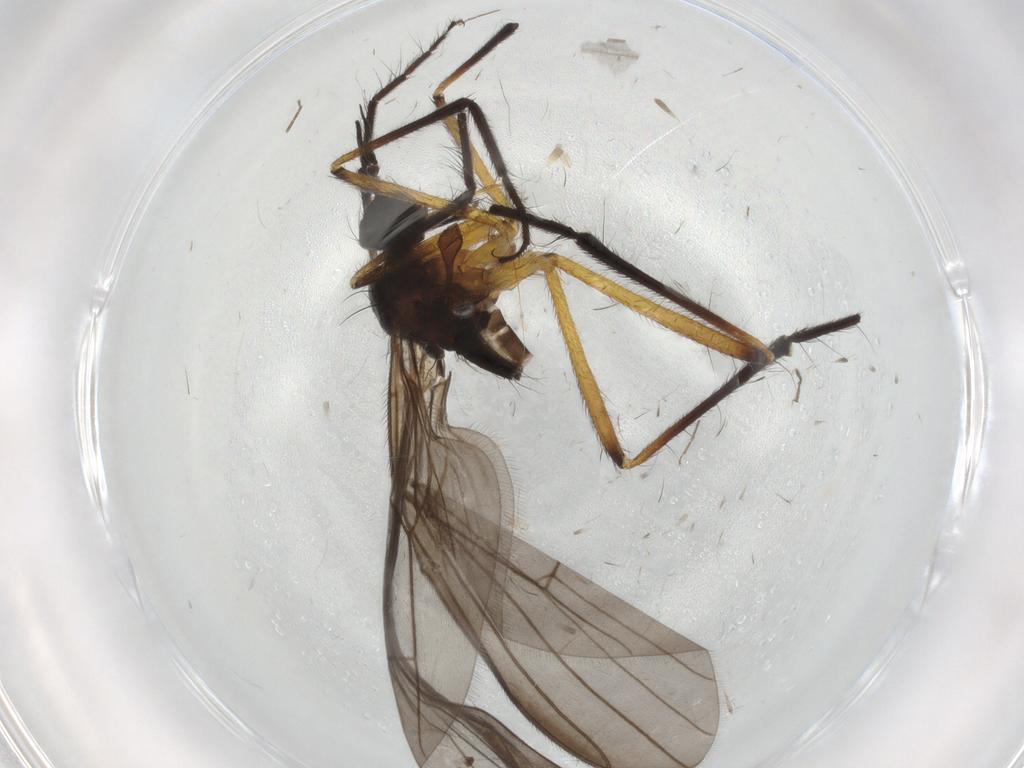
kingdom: Animalia
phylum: Arthropoda
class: Insecta
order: Diptera
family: Empididae
